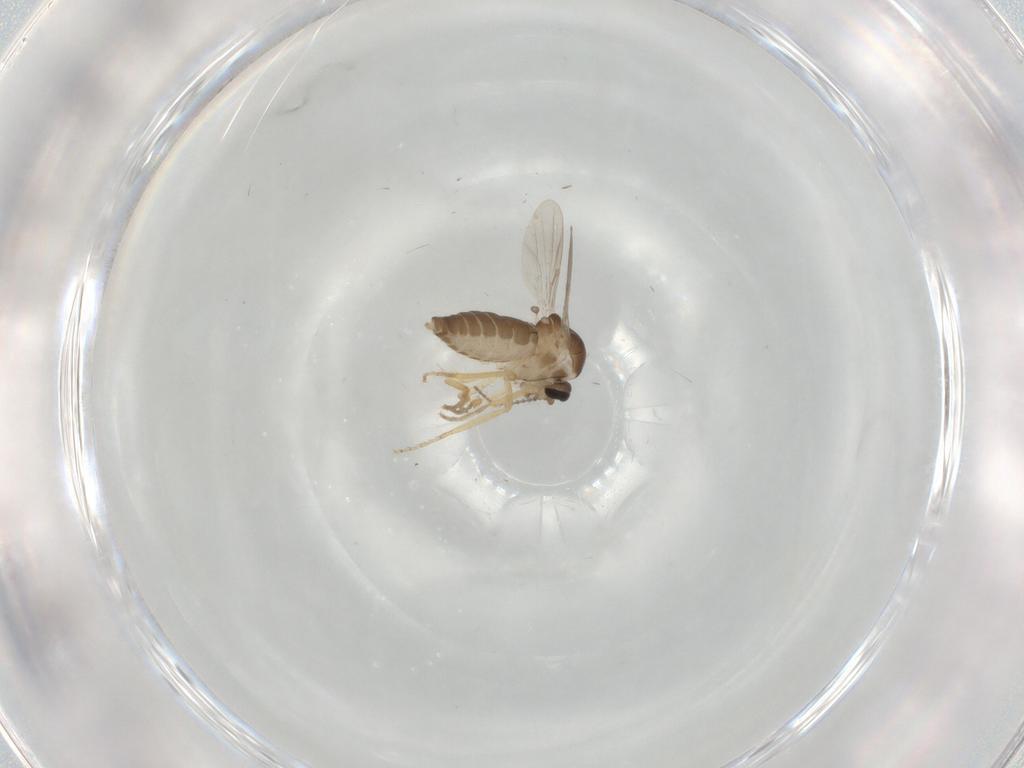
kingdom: Animalia
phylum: Arthropoda
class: Insecta
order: Diptera
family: Ceratopogonidae
